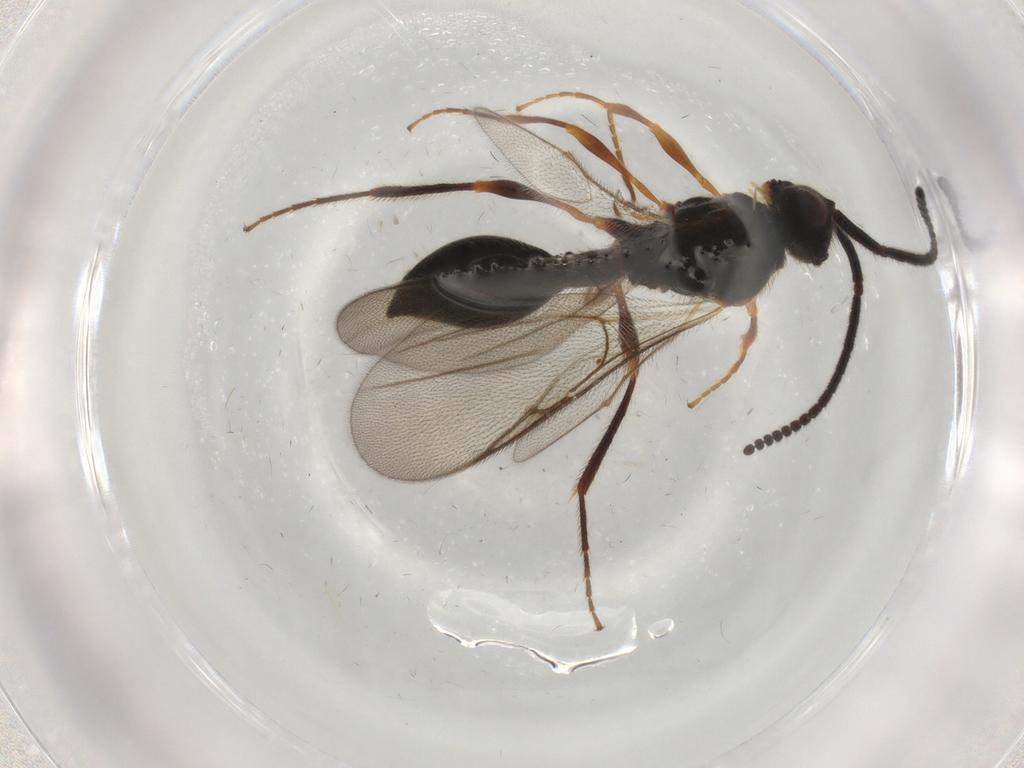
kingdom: Animalia
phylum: Arthropoda
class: Insecta
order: Hymenoptera
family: Diapriidae
